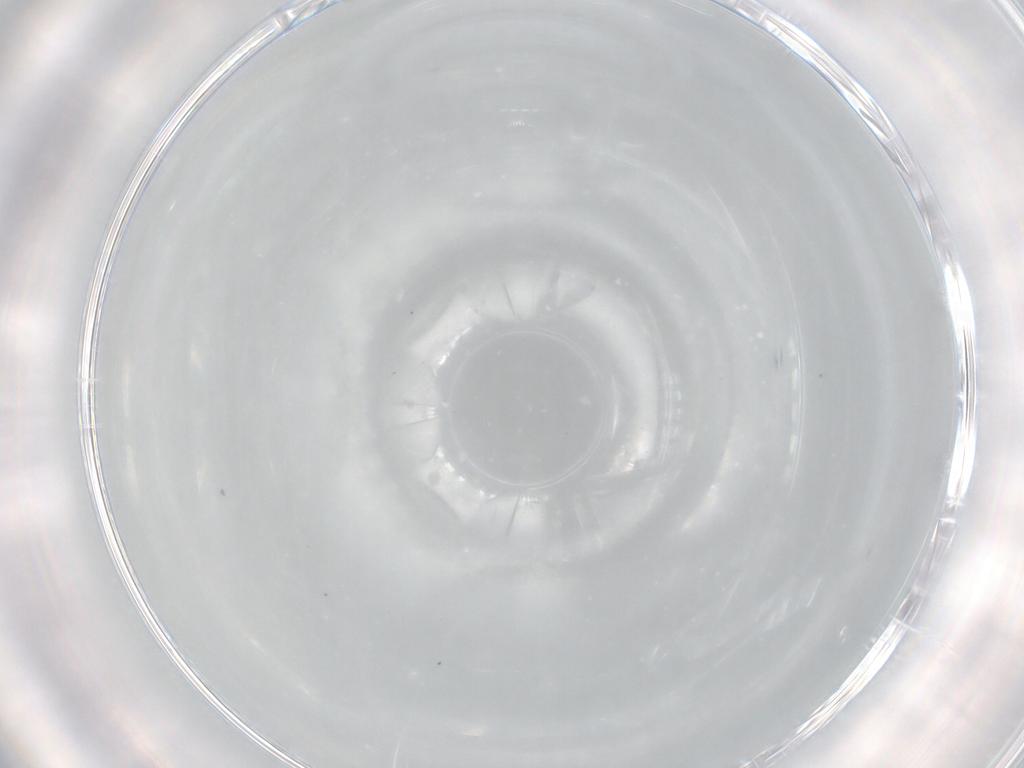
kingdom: Animalia
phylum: Arthropoda
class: Insecta
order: Diptera
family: Lonchaeidae
